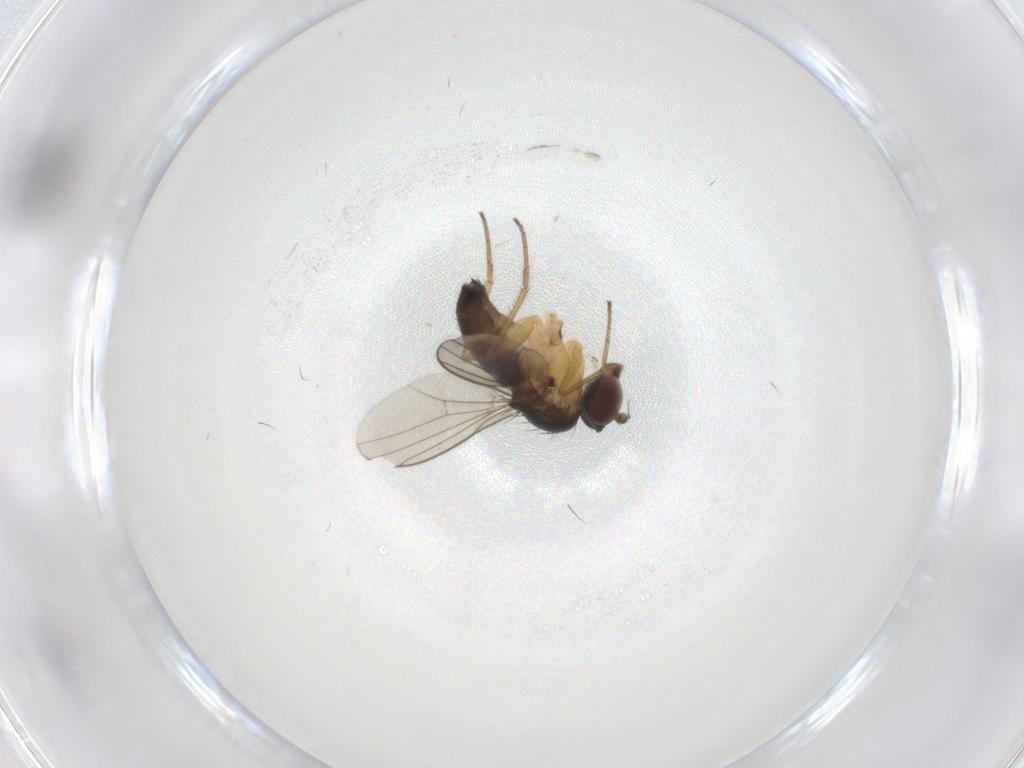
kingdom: Animalia
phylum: Arthropoda
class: Insecta
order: Diptera
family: Dolichopodidae
